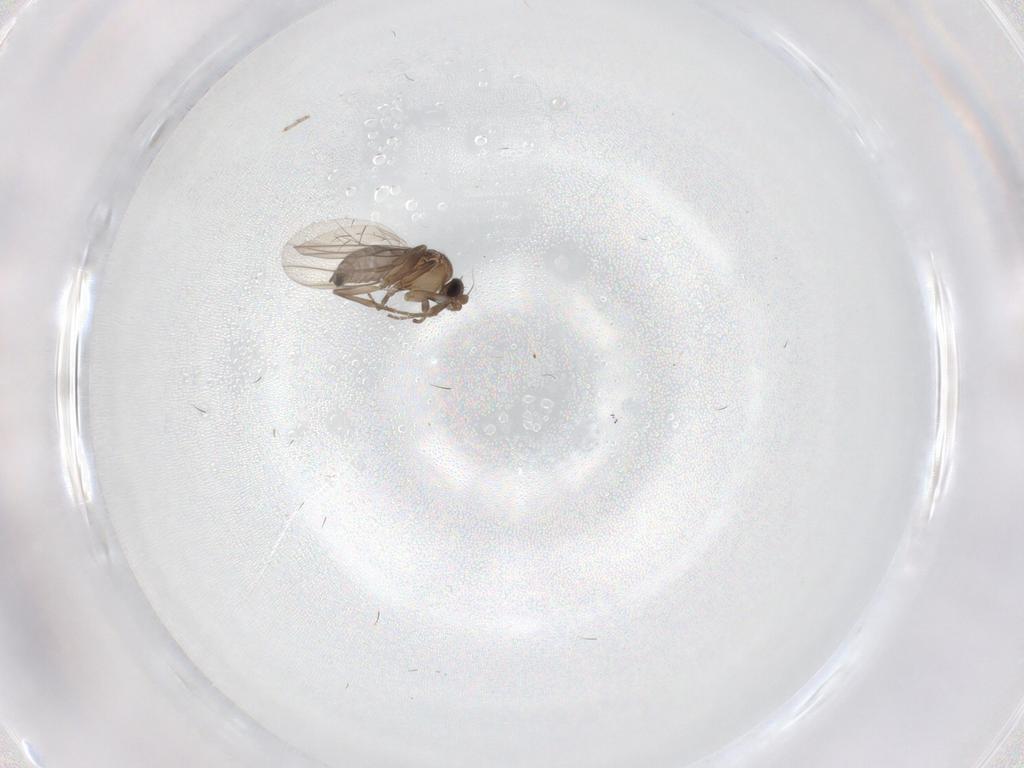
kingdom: Animalia
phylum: Arthropoda
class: Insecta
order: Diptera
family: Phoridae
